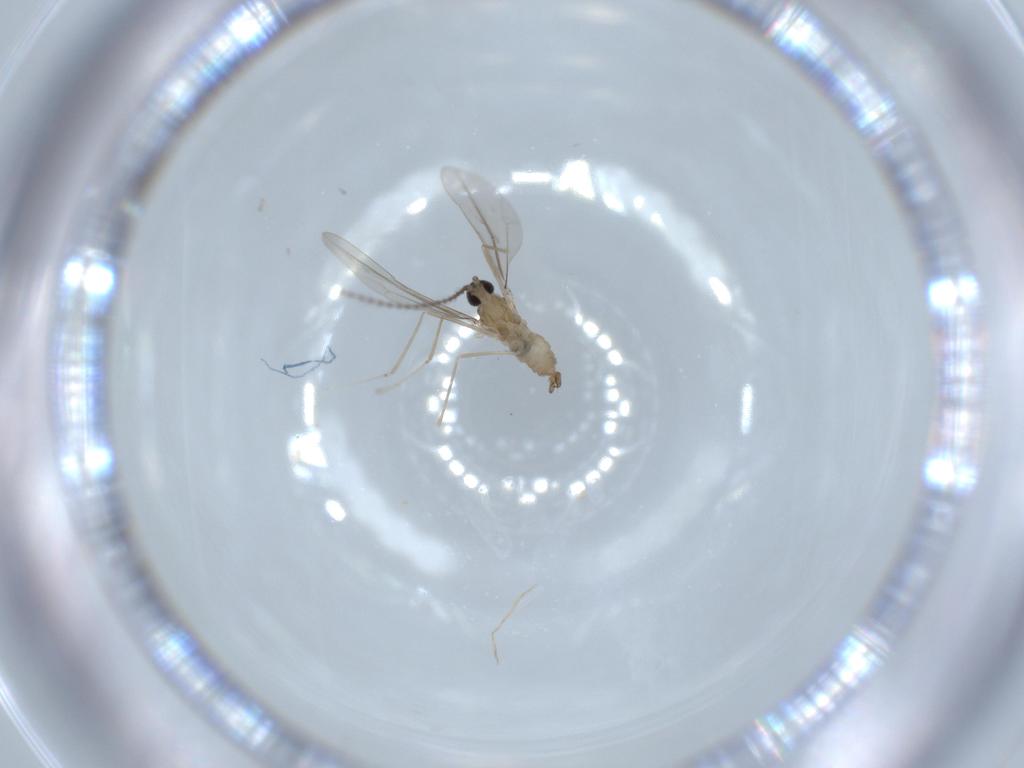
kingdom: Animalia
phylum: Arthropoda
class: Insecta
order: Diptera
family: Cecidomyiidae
